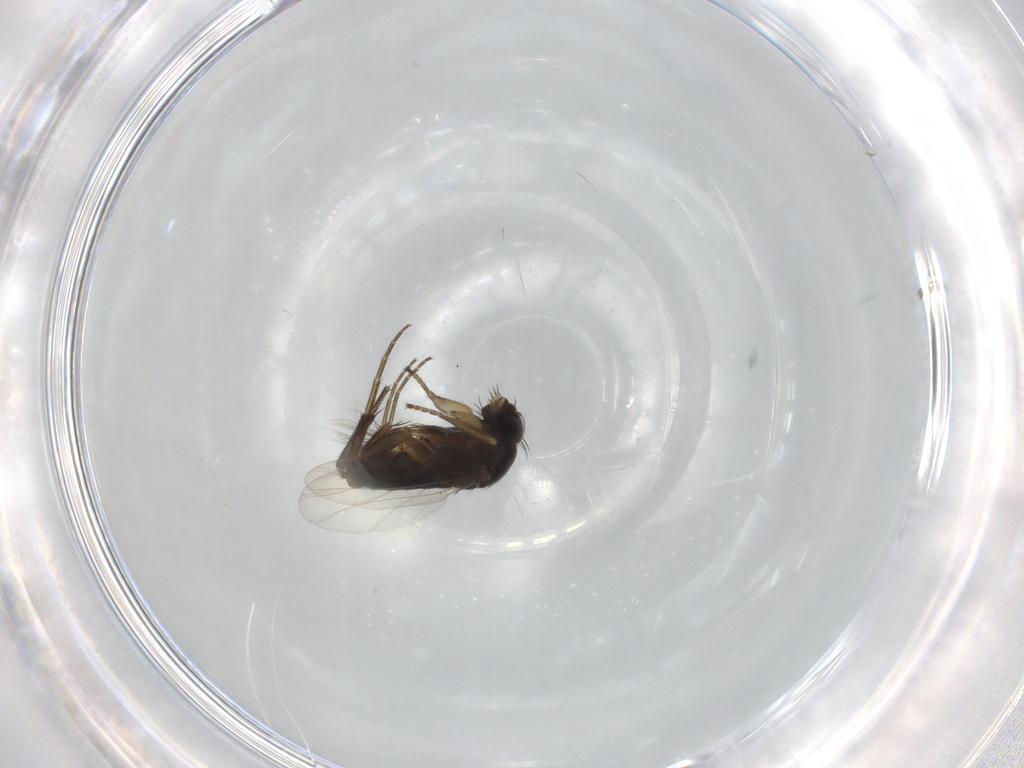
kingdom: Animalia
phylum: Arthropoda
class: Insecta
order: Diptera
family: Phoridae
